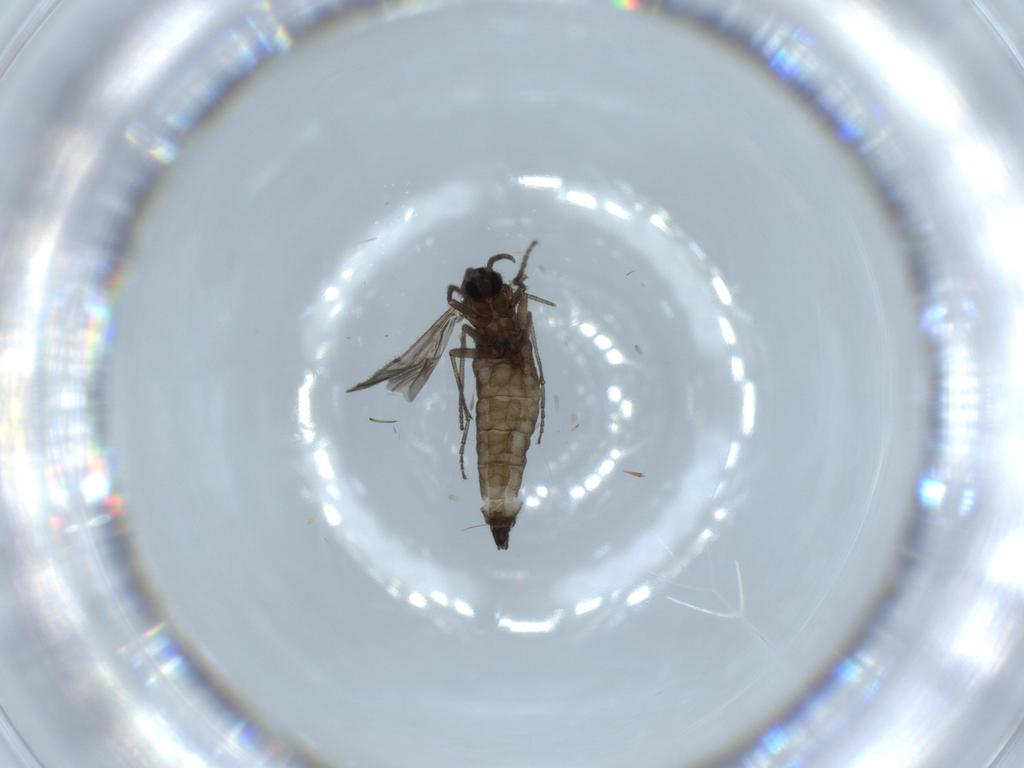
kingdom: Animalia
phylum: Arthropoda
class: Insecta
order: Diptera
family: Sciaridae
